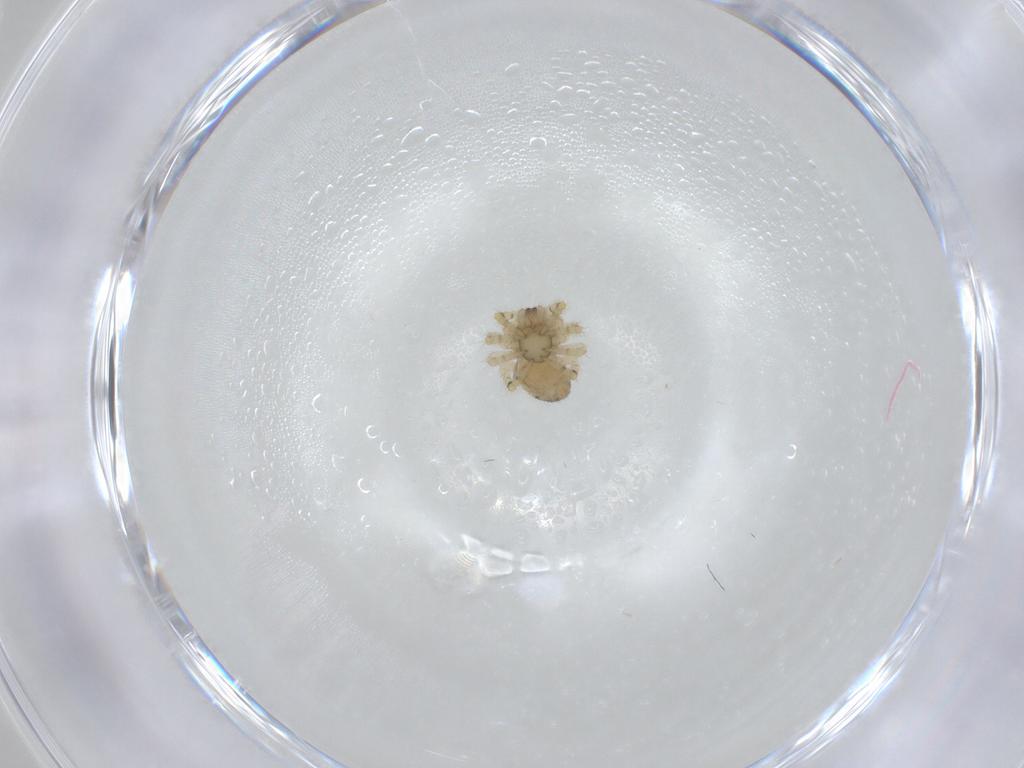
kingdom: Animalia
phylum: Arthropoda
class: Arachnida
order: Araneae
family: Theridiidae
